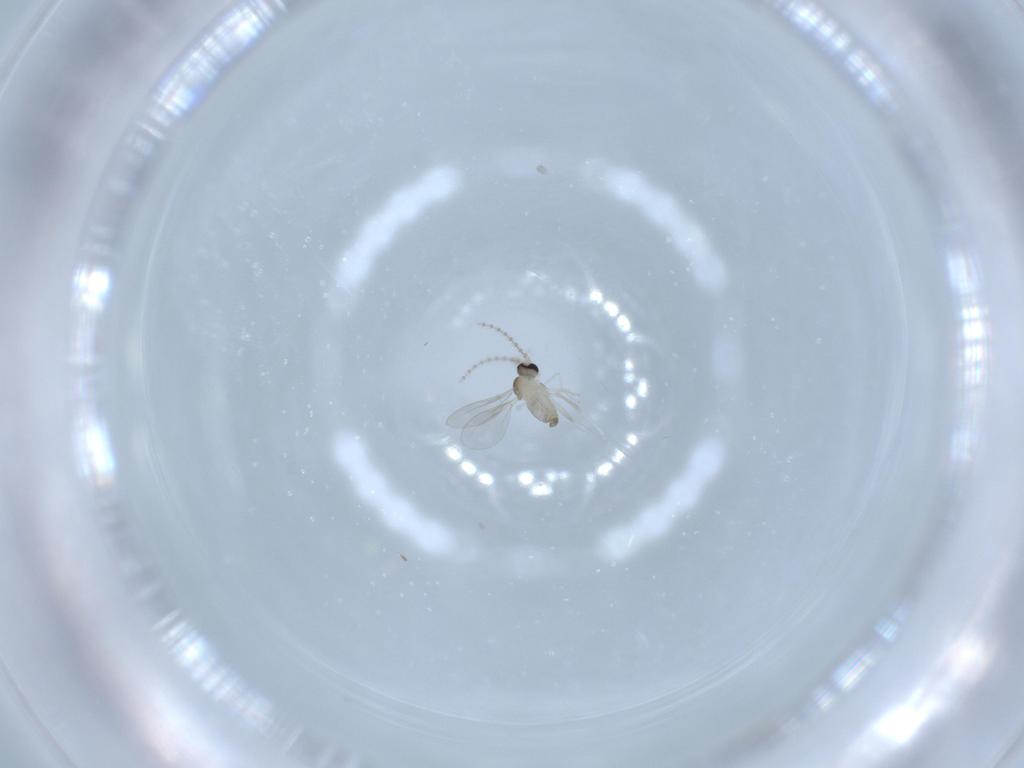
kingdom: Animalia
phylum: Arthropoda
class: Insecta
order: Diptera
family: Cecidomyiidae
